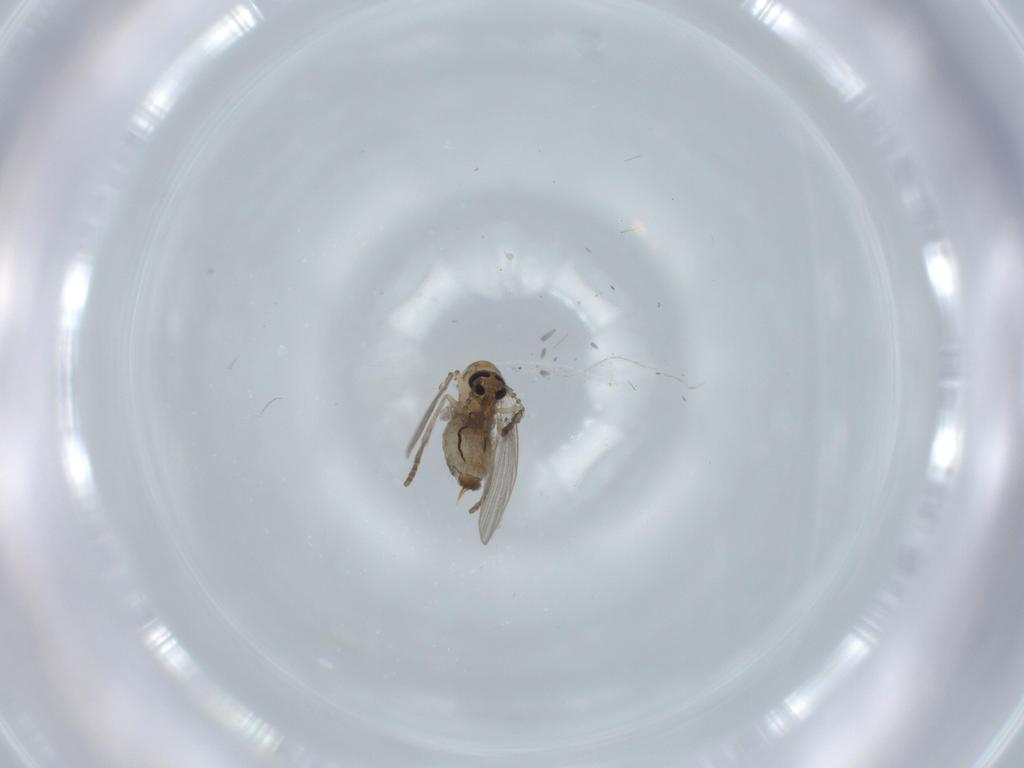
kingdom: Animalia
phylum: Arthropoda
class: Insecta
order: Diptera
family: Psychodidae
